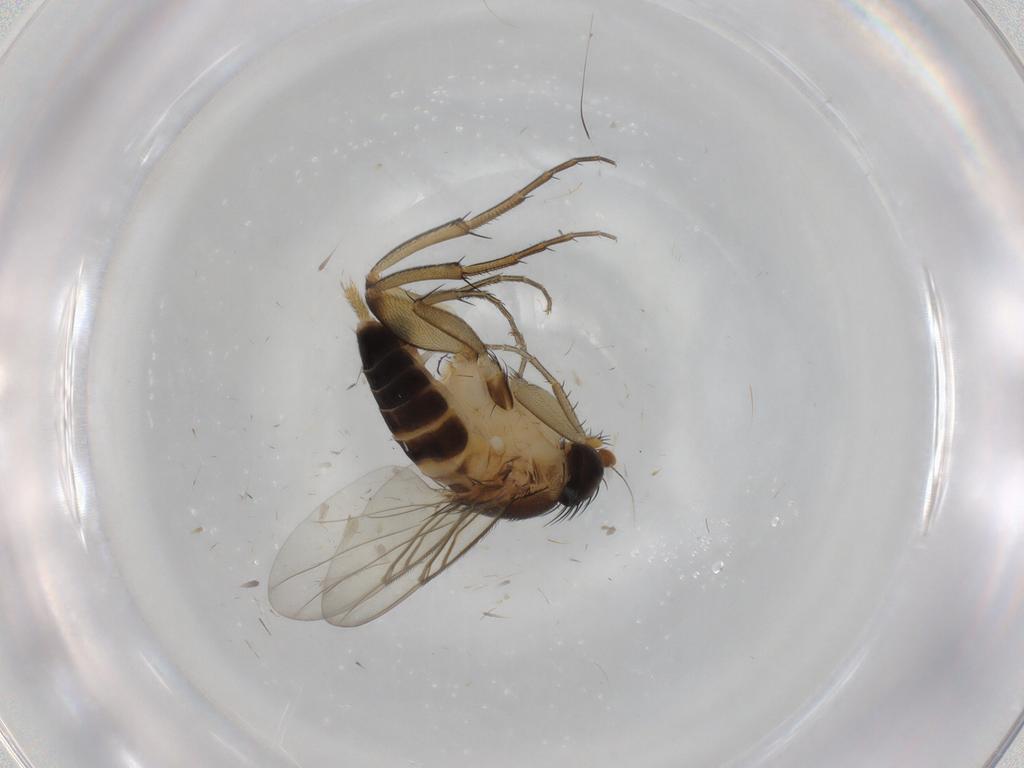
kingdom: Animalia
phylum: Arthropoda
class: Insecta
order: Diptera
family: Phoridae
